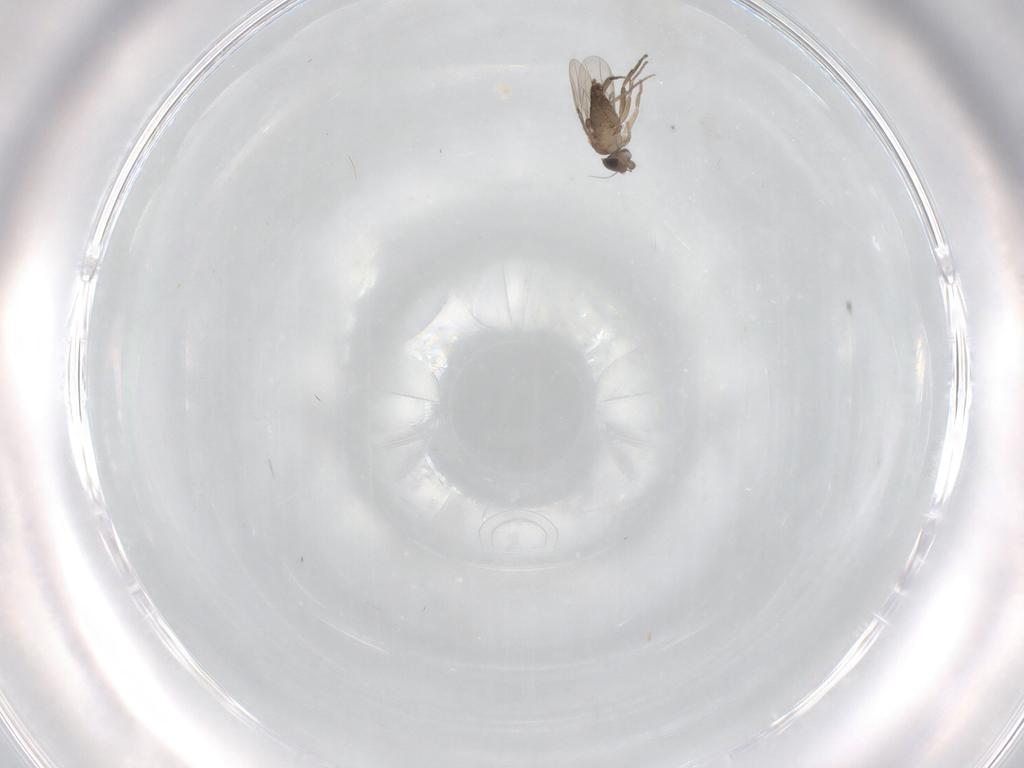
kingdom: Animalia
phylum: Arthropoda
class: Insecta
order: Diptera
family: Phoridae
